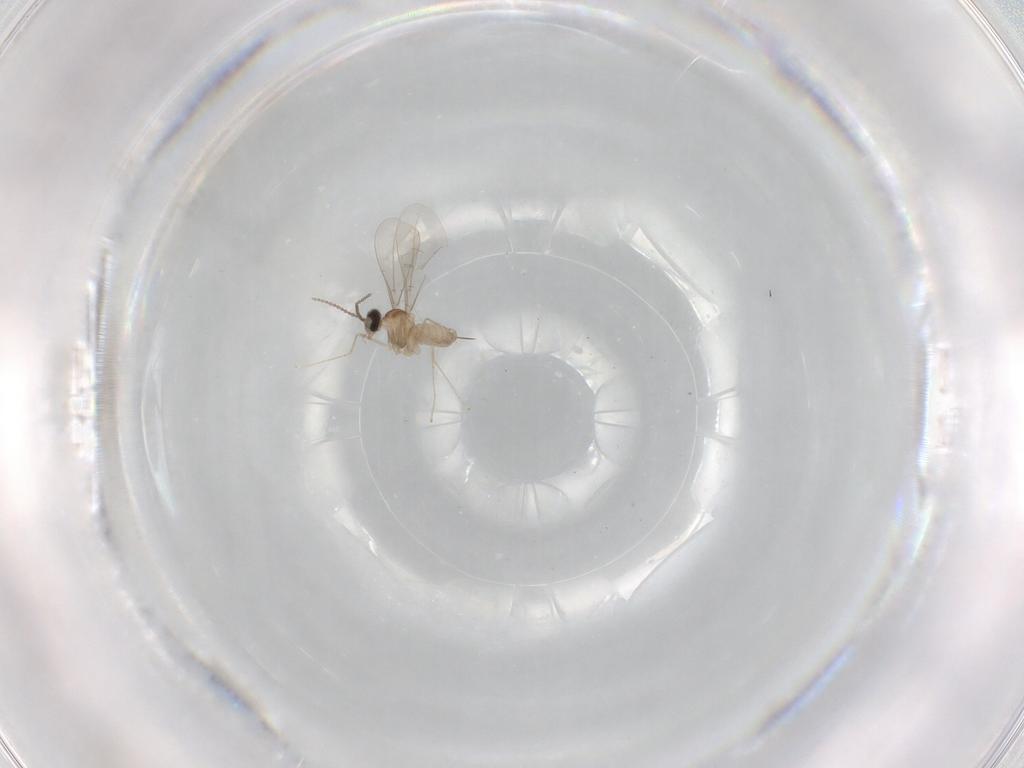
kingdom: Animalia
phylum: Arthropoda
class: Insecta
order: Diptera
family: Cecidomyiidae
